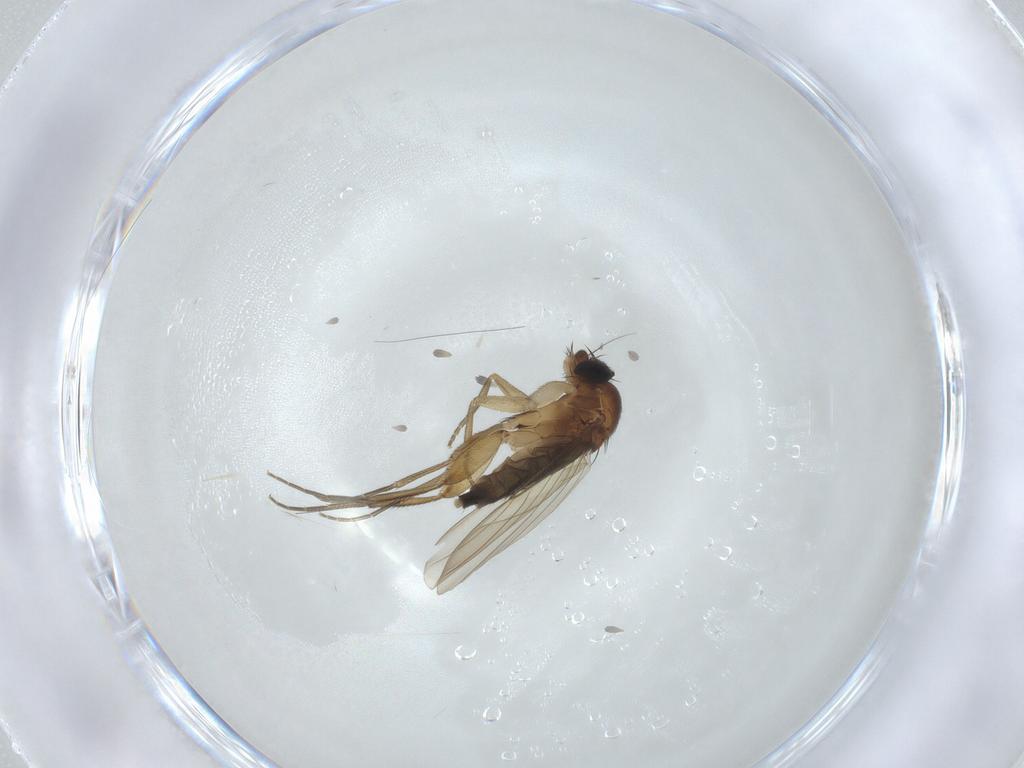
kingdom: Animalia
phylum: Arthropoda
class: Insecta
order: Diptera
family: Phoridae
